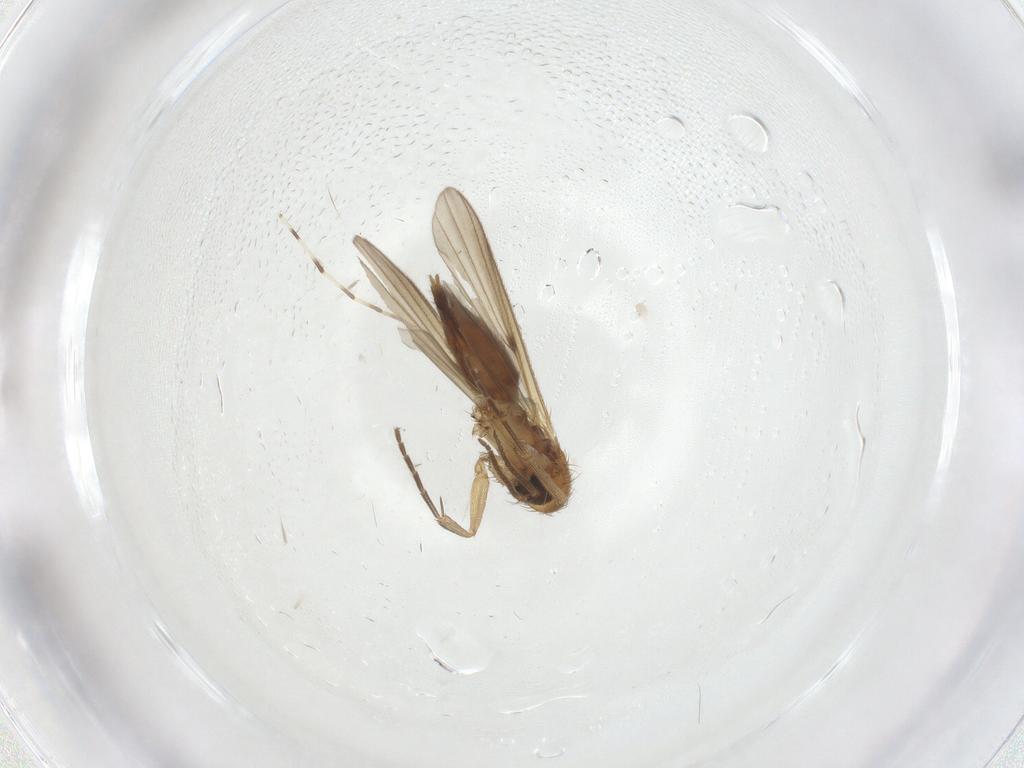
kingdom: Animalia
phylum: Arthropoda
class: Insecta
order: Diptera
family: Mycetophilidae
